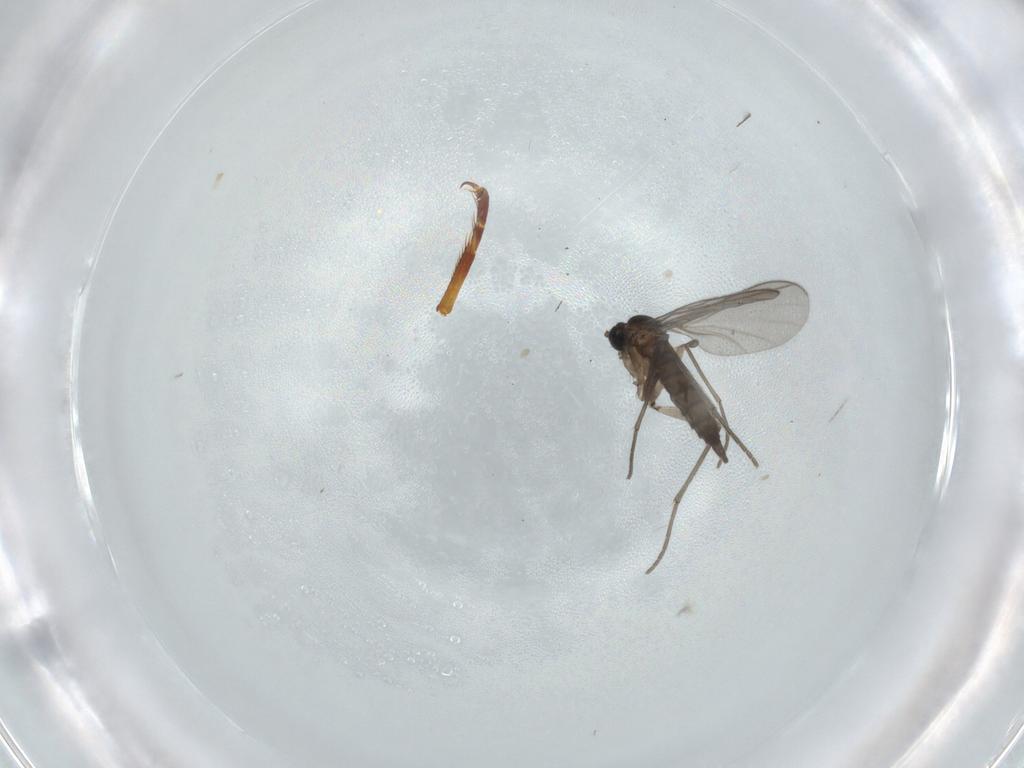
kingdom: Animalia
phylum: Arthropoda
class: Insecta
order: Diptera
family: Sciaridae
